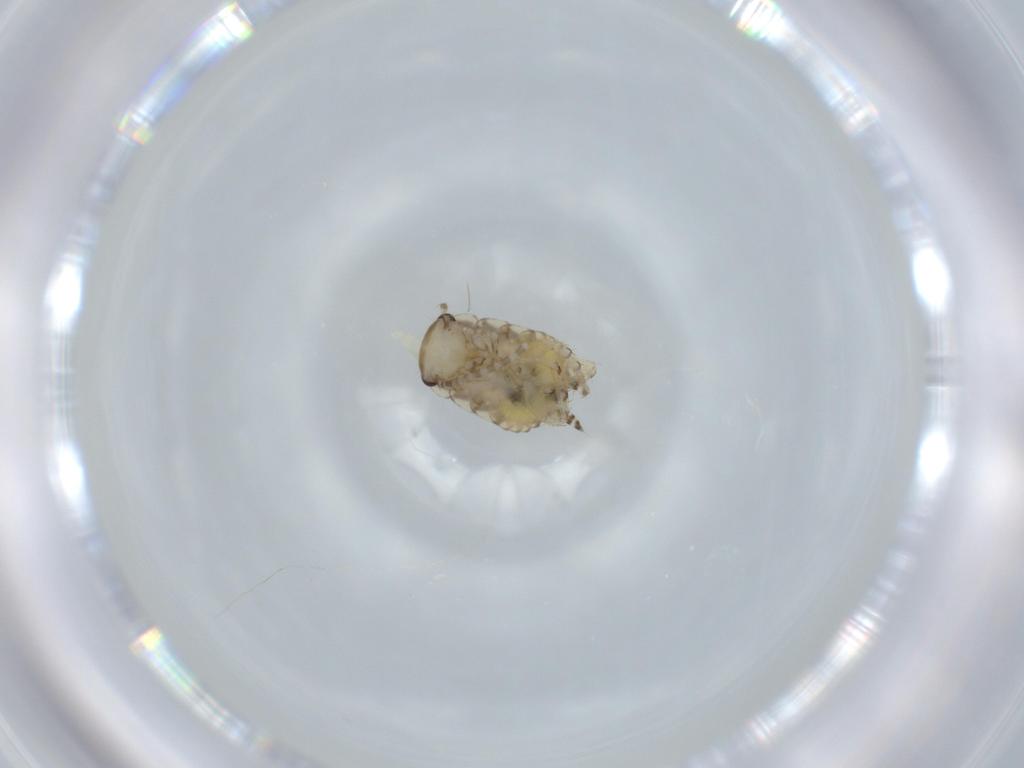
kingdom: Animalia
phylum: Arthropoda
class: Insecta
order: Blattodea
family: Ectobiidae
